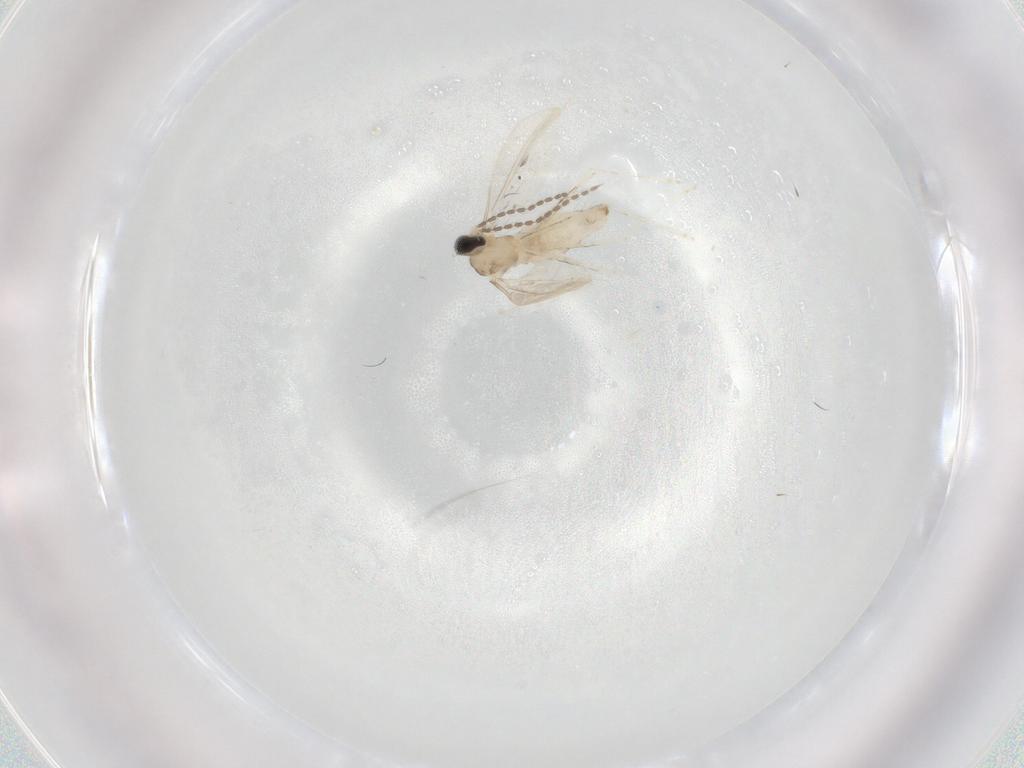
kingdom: Animalia
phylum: Arthropoda
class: Insecta
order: Diptera
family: Cecidomyiidae
